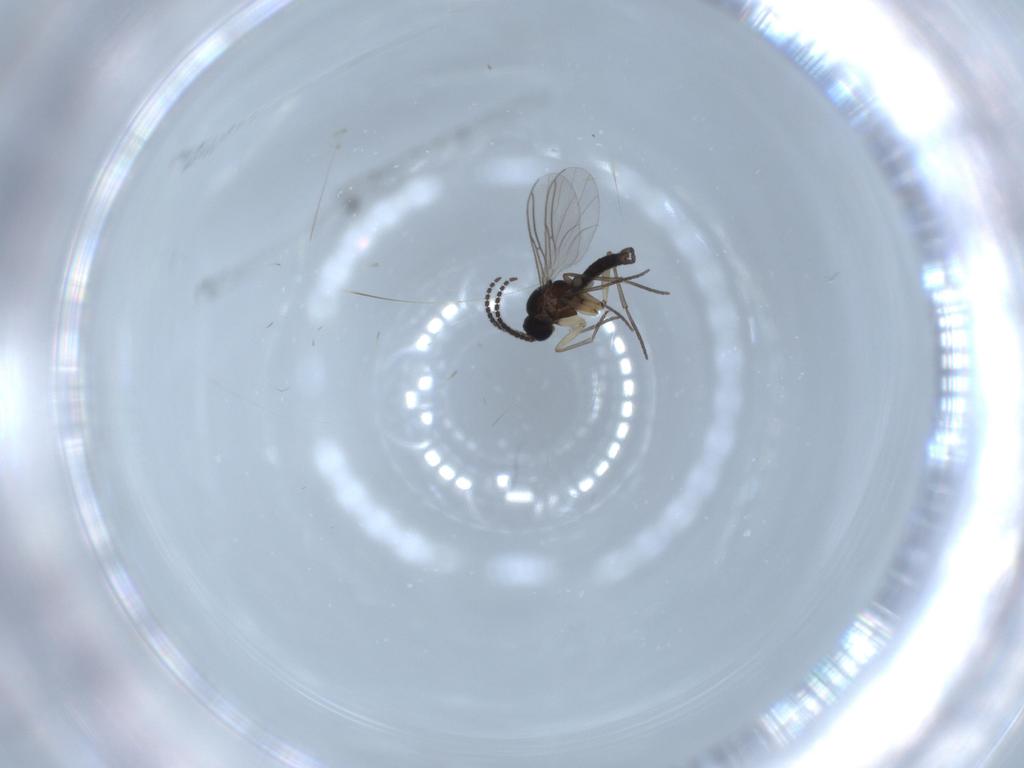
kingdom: Animalia
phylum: Arthropoda
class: Insecta
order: Diptera
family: Hybotidae
